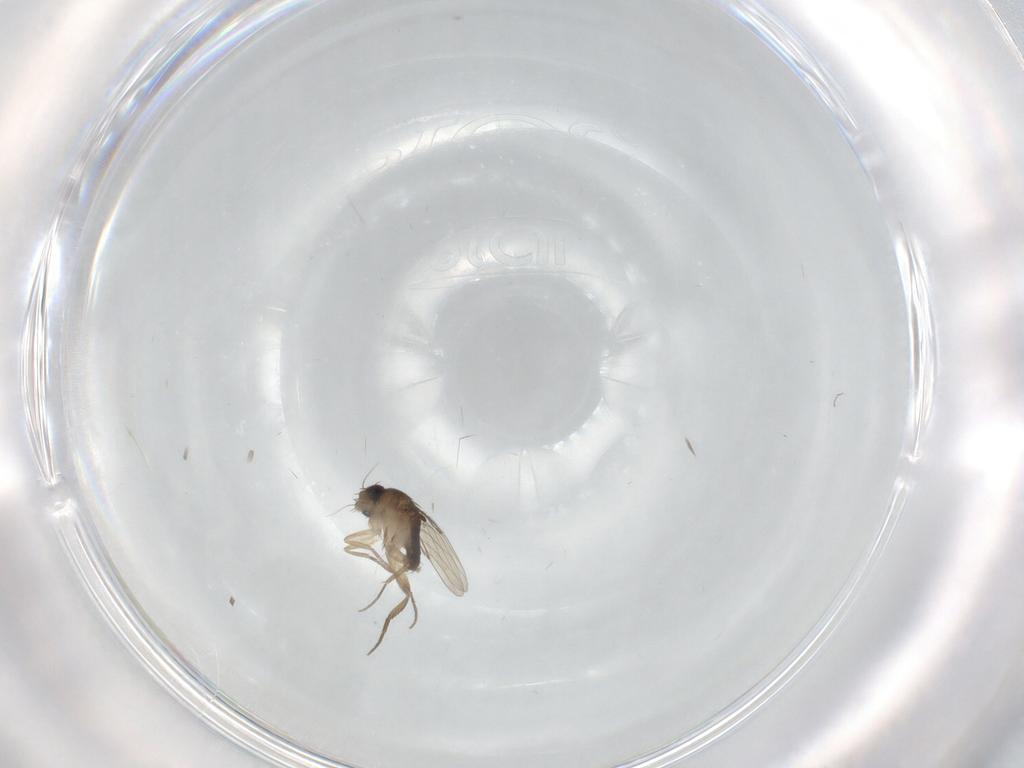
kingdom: Animalia
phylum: Arthropoda
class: Insecta
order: Diptera
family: Phoridae
